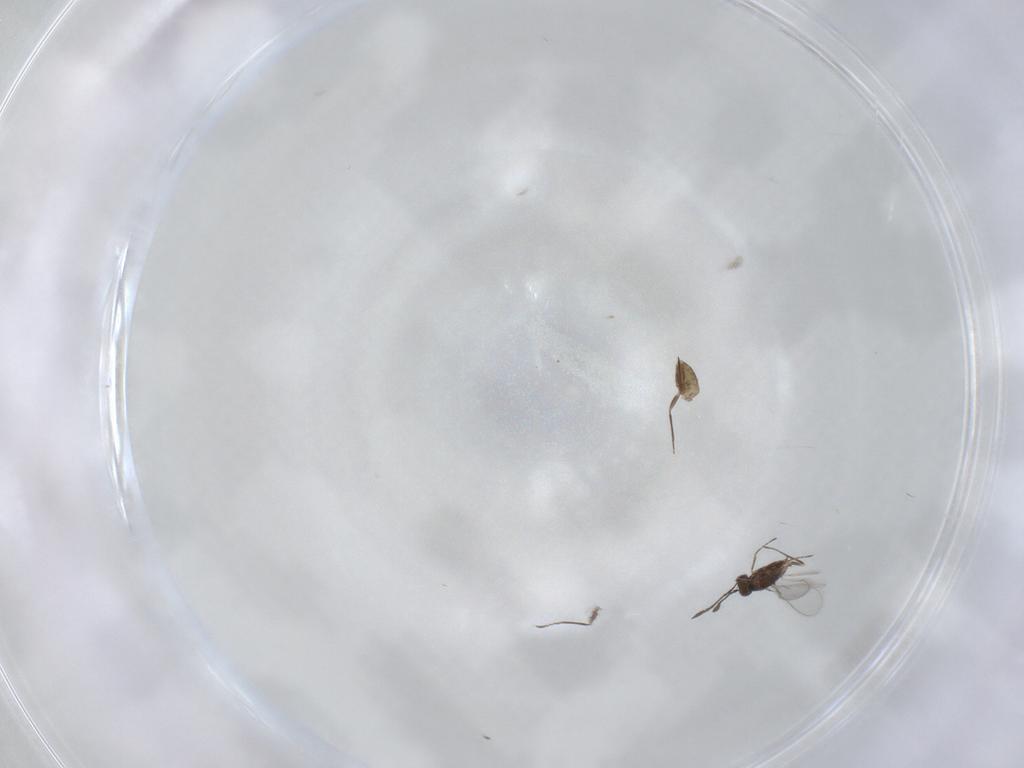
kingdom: Animalia
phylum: Arthropoda
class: Insecta
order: Hymenoptera
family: Mymaridae
